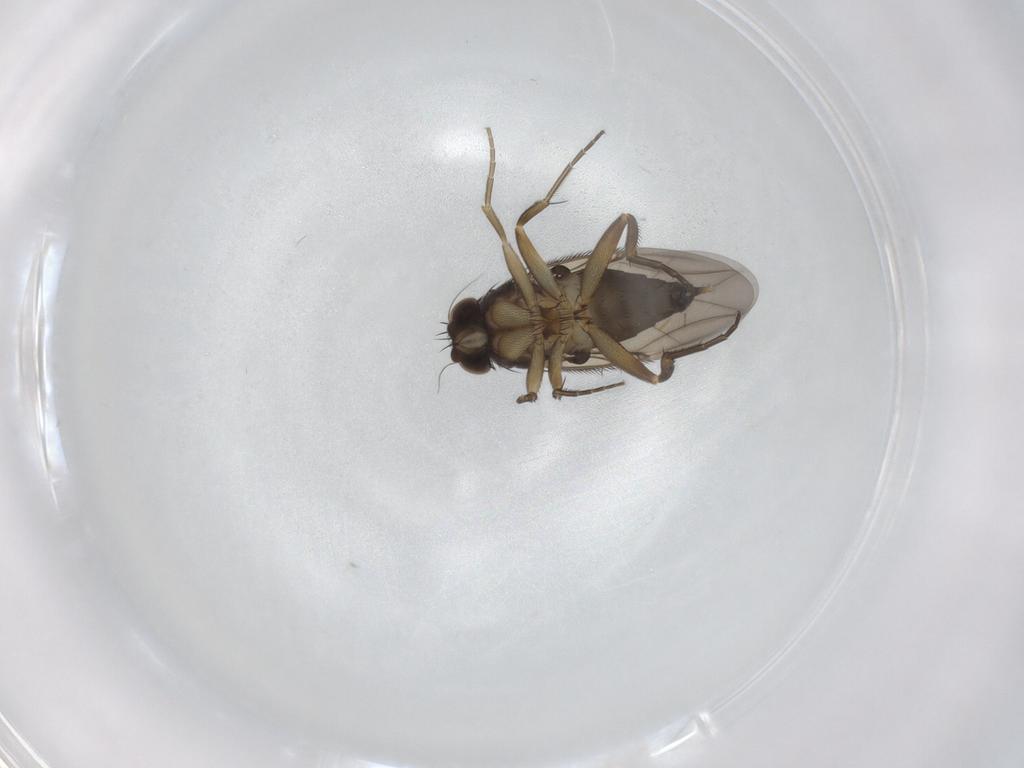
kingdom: Animalia
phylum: Arthropoda
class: Insecta
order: Diptera
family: Phoridae
